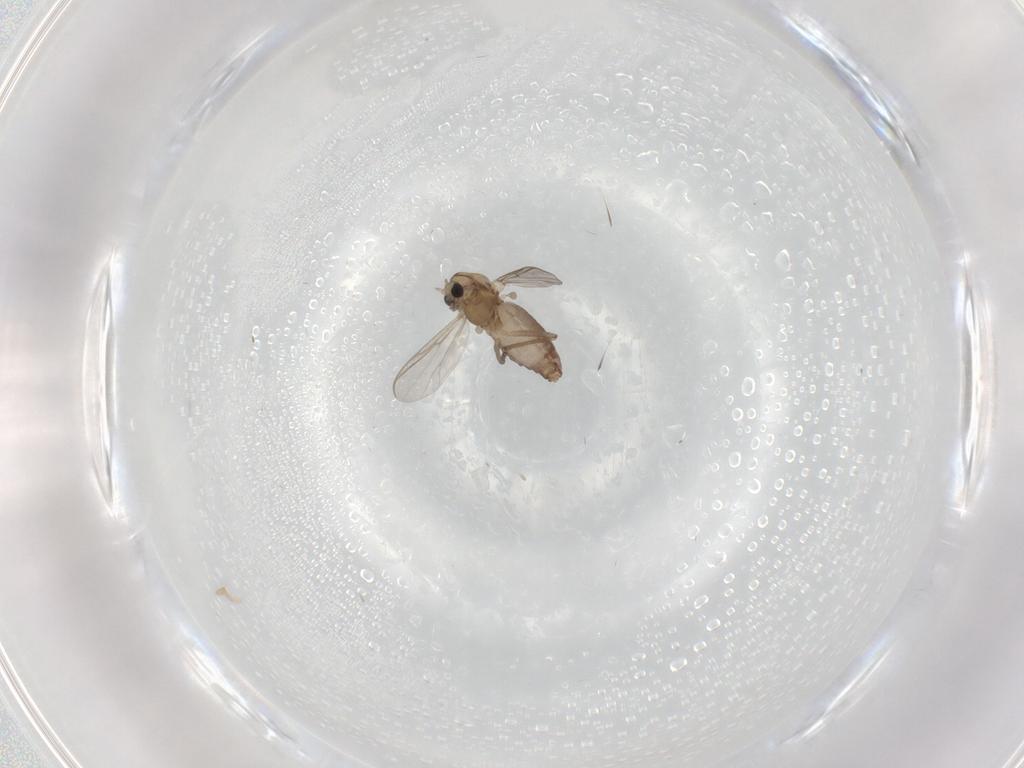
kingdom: Animalia
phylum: Arthropoda
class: Insecta
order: Diptera
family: Chironomidae
